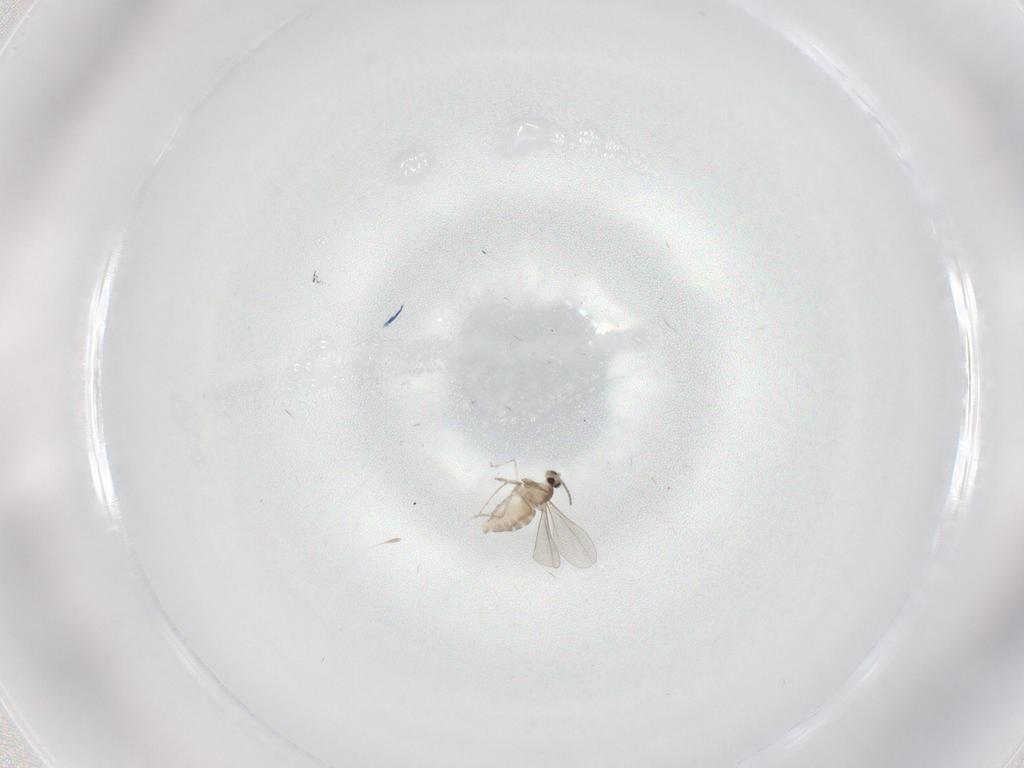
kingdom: Animalia
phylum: Arthropoda
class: Insecta
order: Diptera
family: Cecidomyiidae
